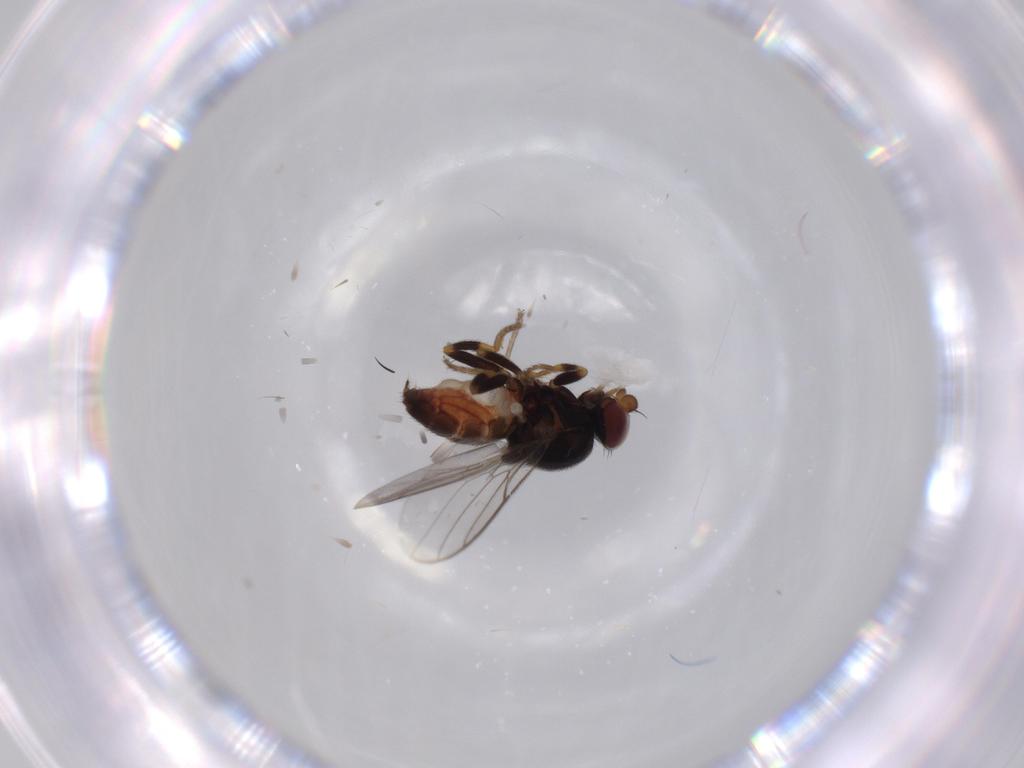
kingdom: Animalia
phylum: Arthropoda
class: Insecta
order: Diptera
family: Chloropidae
